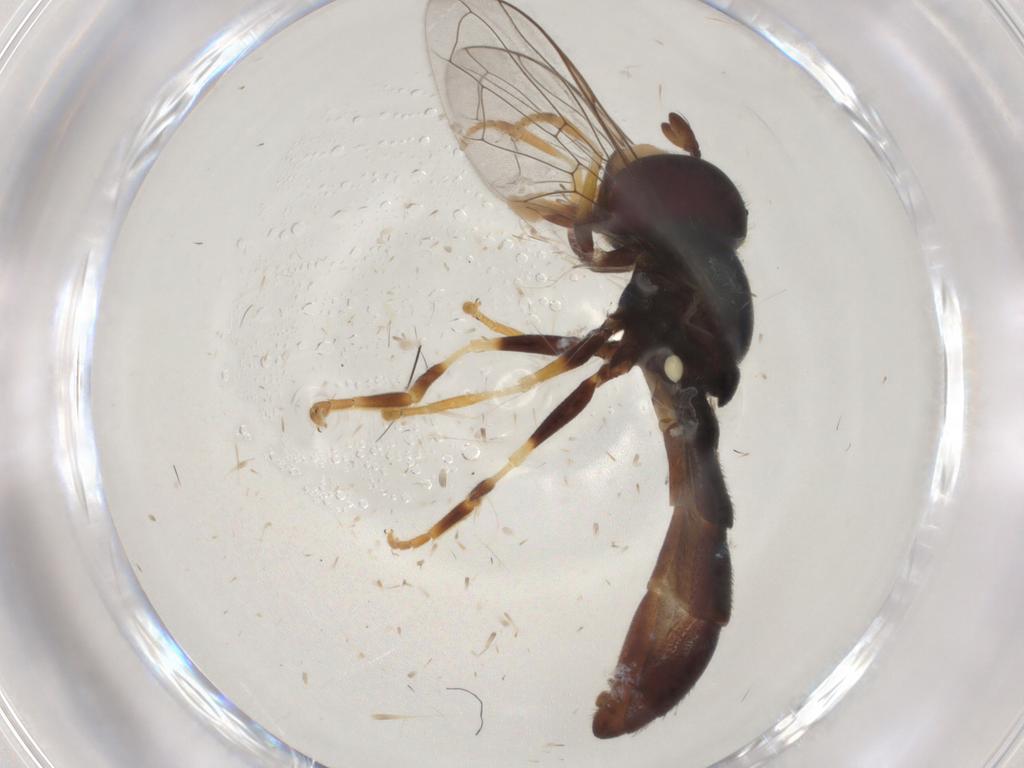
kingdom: Animalia
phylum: Arthropoda
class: Insecta
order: Diptera
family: Syrphidae
